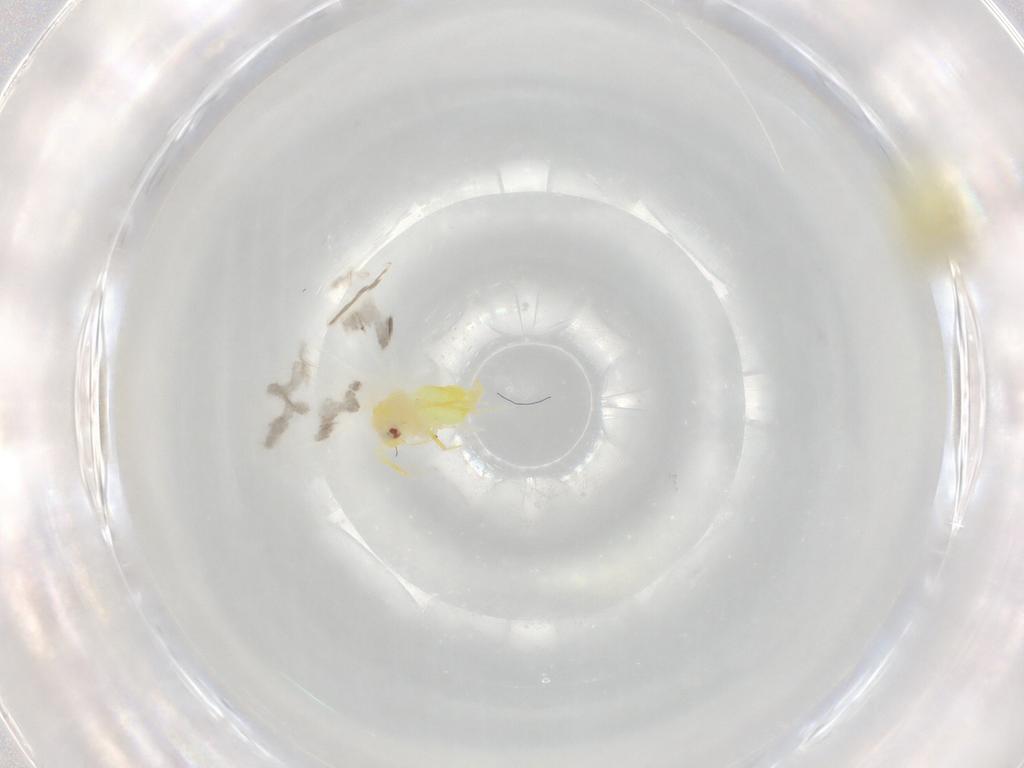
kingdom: Animalia
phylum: Arthropoda
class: Insecta
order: Hemiptera
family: Aleyrodidae
